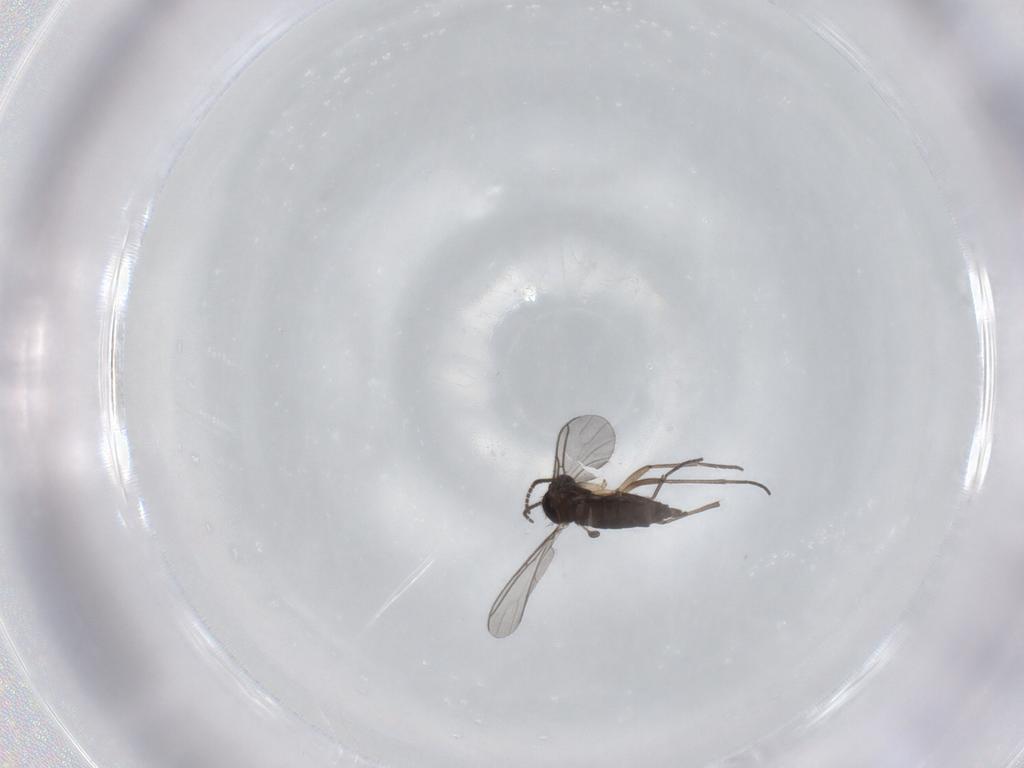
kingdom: Animalia
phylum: Arthropoda
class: Insecta
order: Diptera
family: Sciaridae
